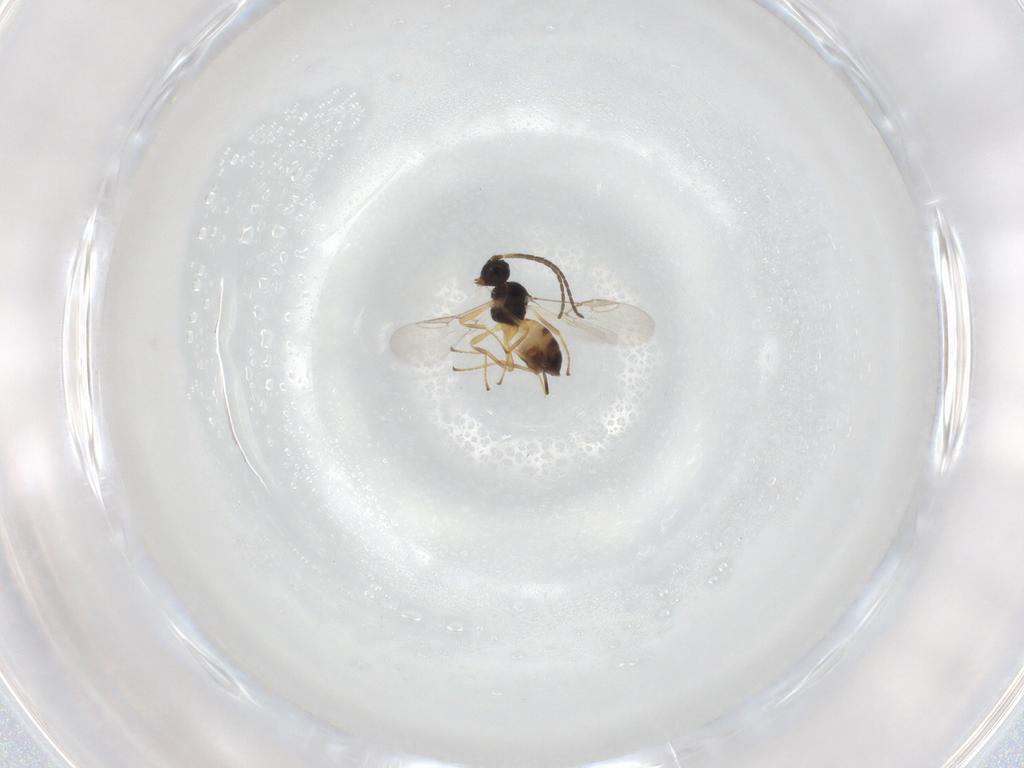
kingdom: Animalia
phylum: Arthropoda
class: Insecta
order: Hymenoptera
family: Braconidae
